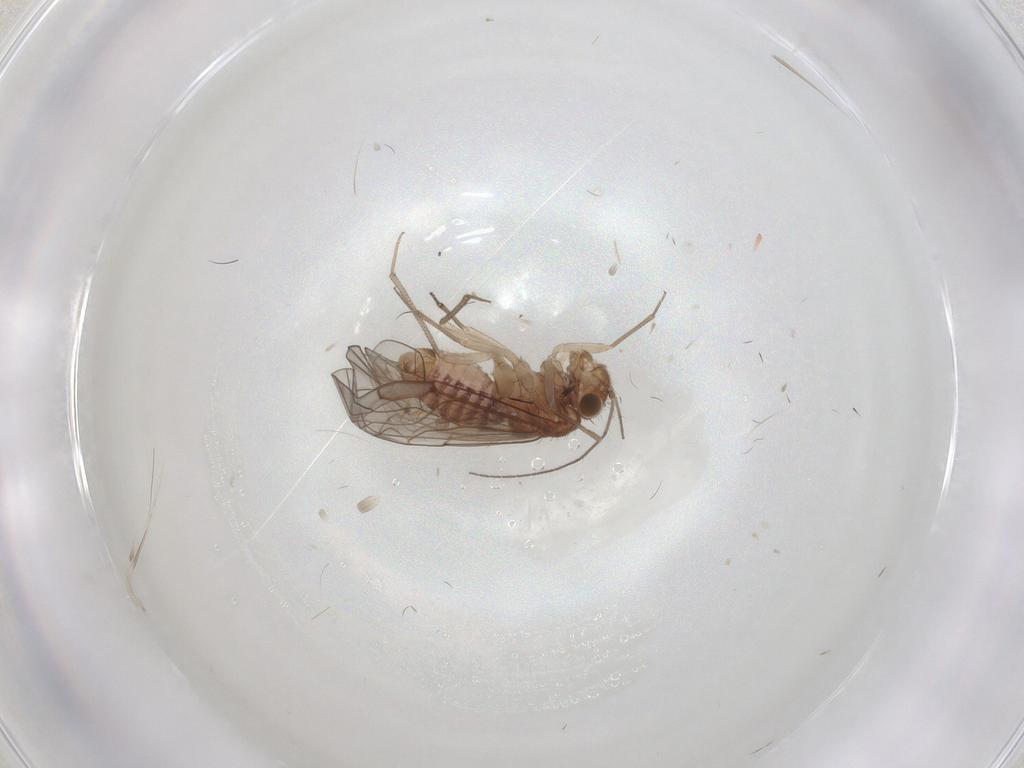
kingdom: Animalia
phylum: Arthropoda
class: Insecta
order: Psocodea
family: Lachesillidae
